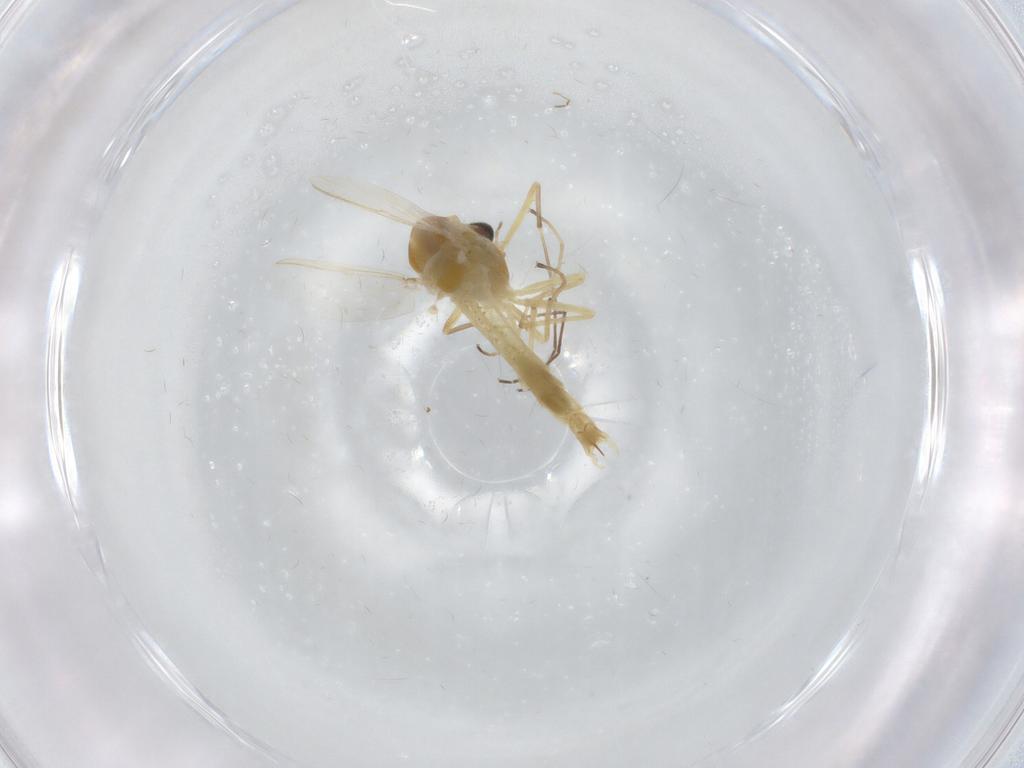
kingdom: Animalia
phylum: Arthropoda
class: Insecta
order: Diptera
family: Chironomidae
